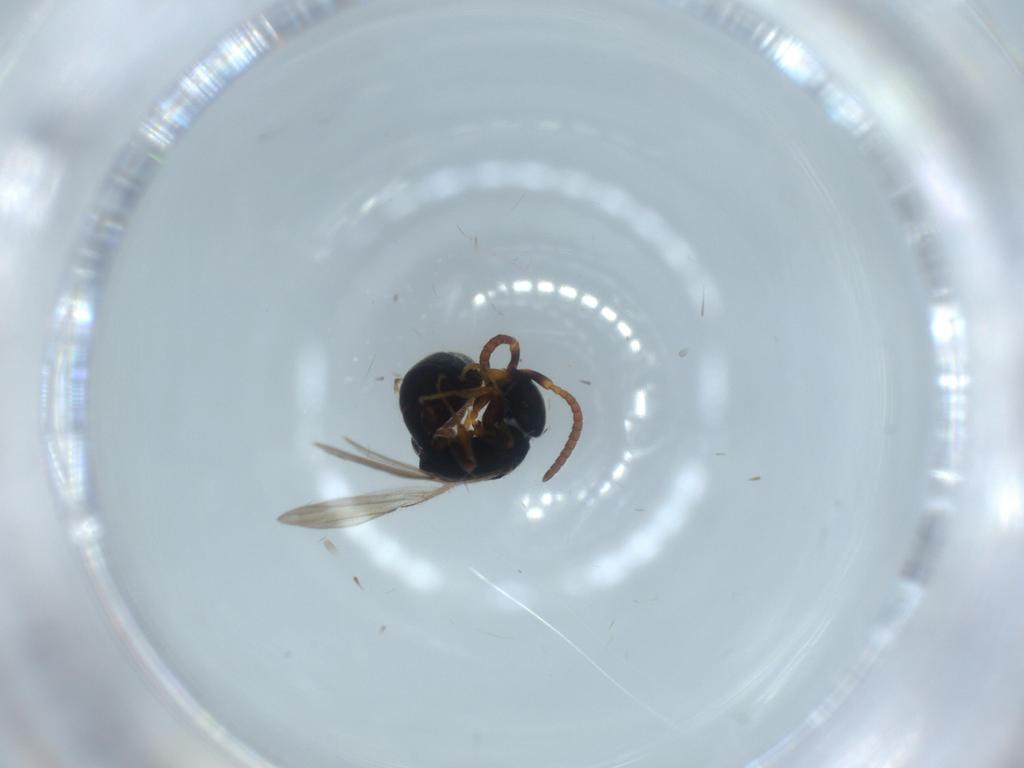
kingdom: Animalia
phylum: Arthropoda
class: Insecta
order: Hymenoptera
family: Bethylidae
